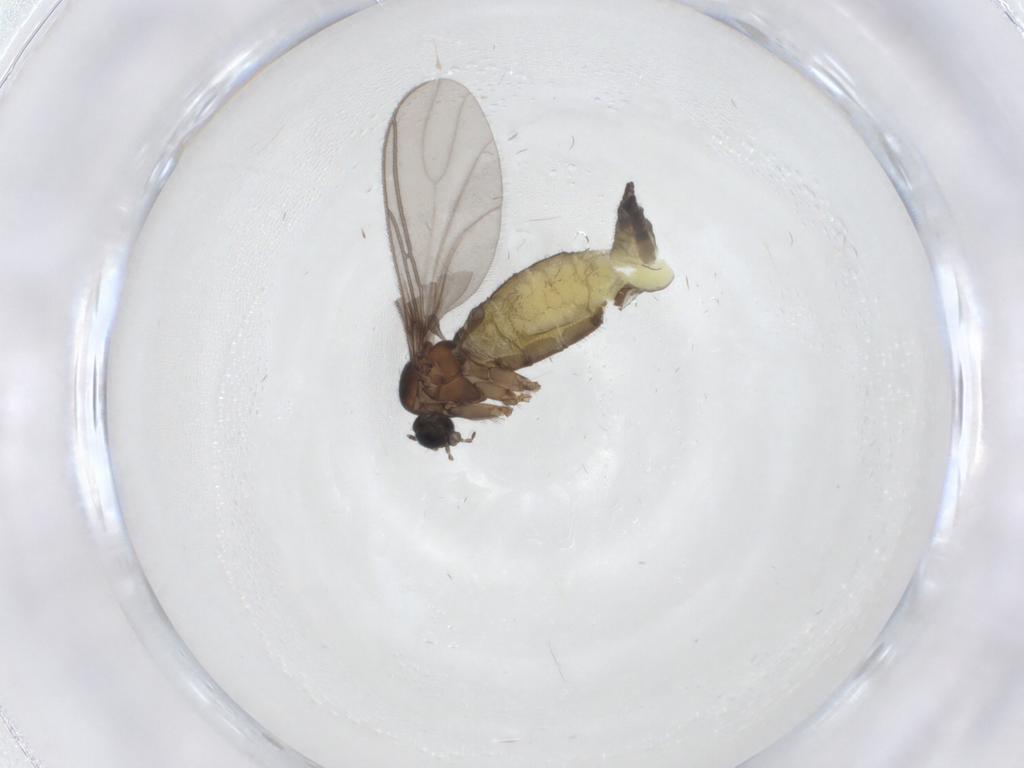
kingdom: Animalia
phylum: Arthropoda
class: Insecta
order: Diptera
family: Sciaridae
